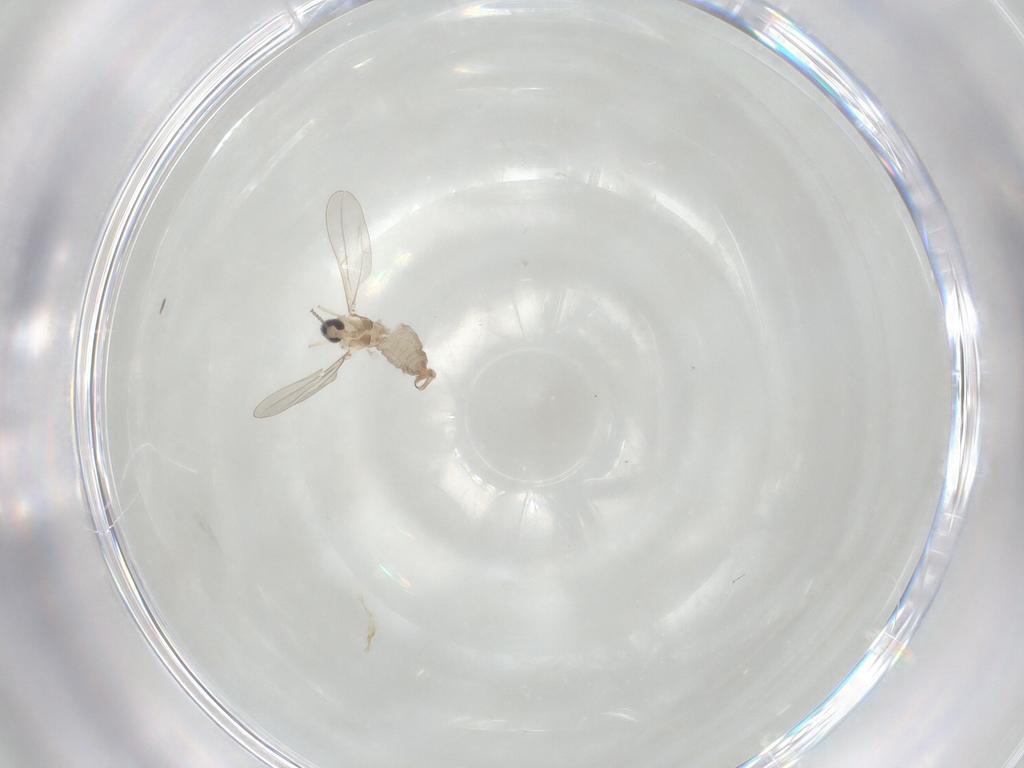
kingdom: Animalia
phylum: Arthropoda
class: Insecta
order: Diptera
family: Cecidomyiidae
